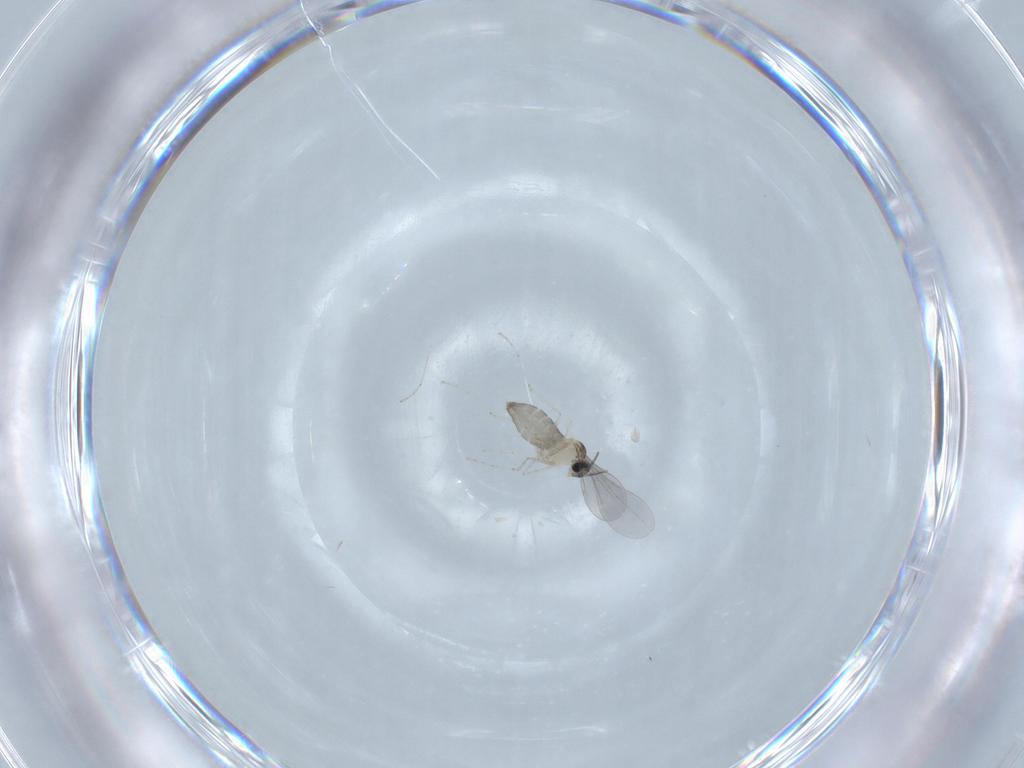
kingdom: Animalia
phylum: Arthropoda
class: Insecta
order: Diptera
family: Cecidomyiidae
